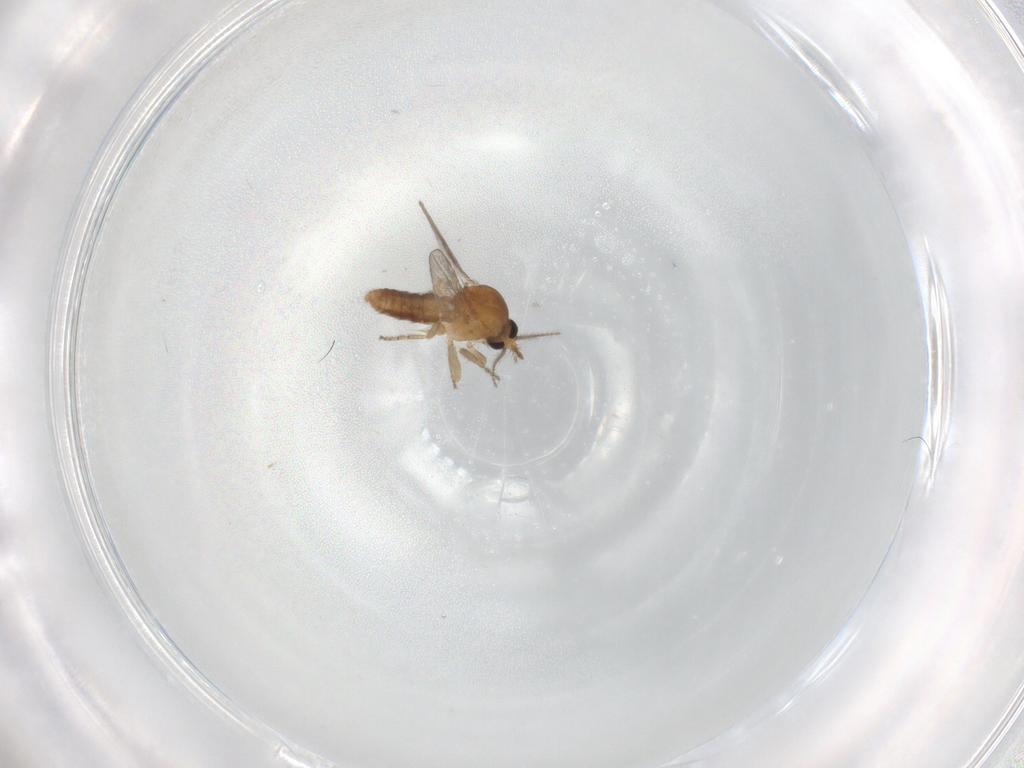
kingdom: Animalia
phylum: Arthropoda
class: Insecta
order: Diptera
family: Ceratopogonidae
